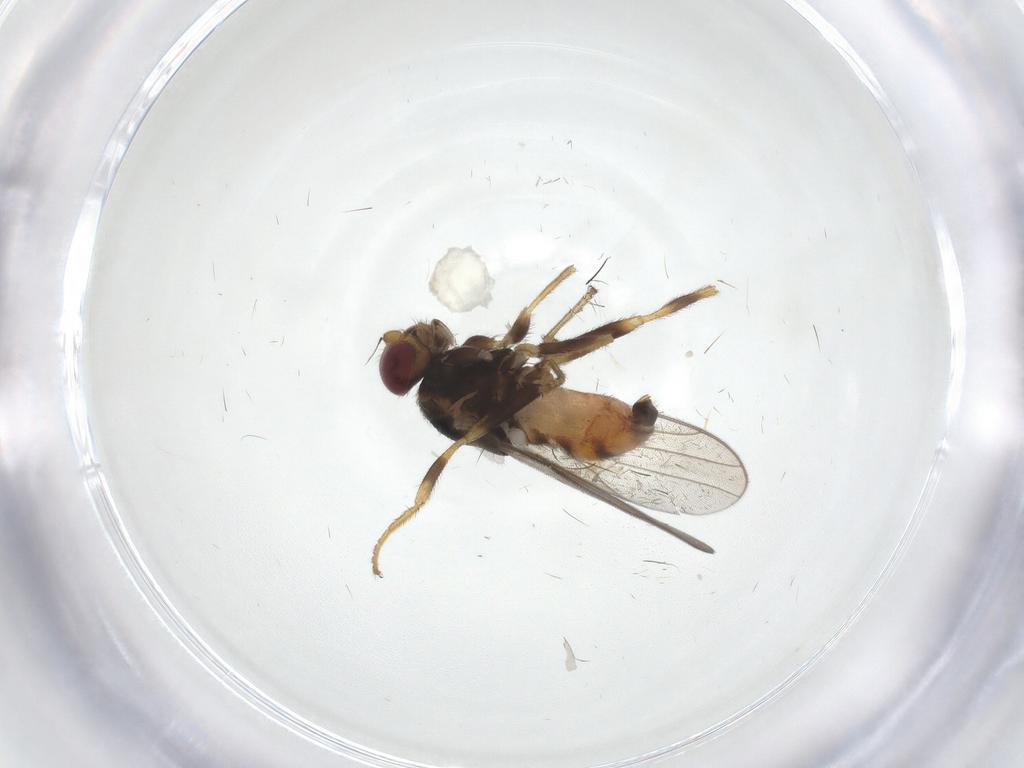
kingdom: Animalia
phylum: Arthropoda
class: Insecta
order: Diptera
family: Chloropidae
